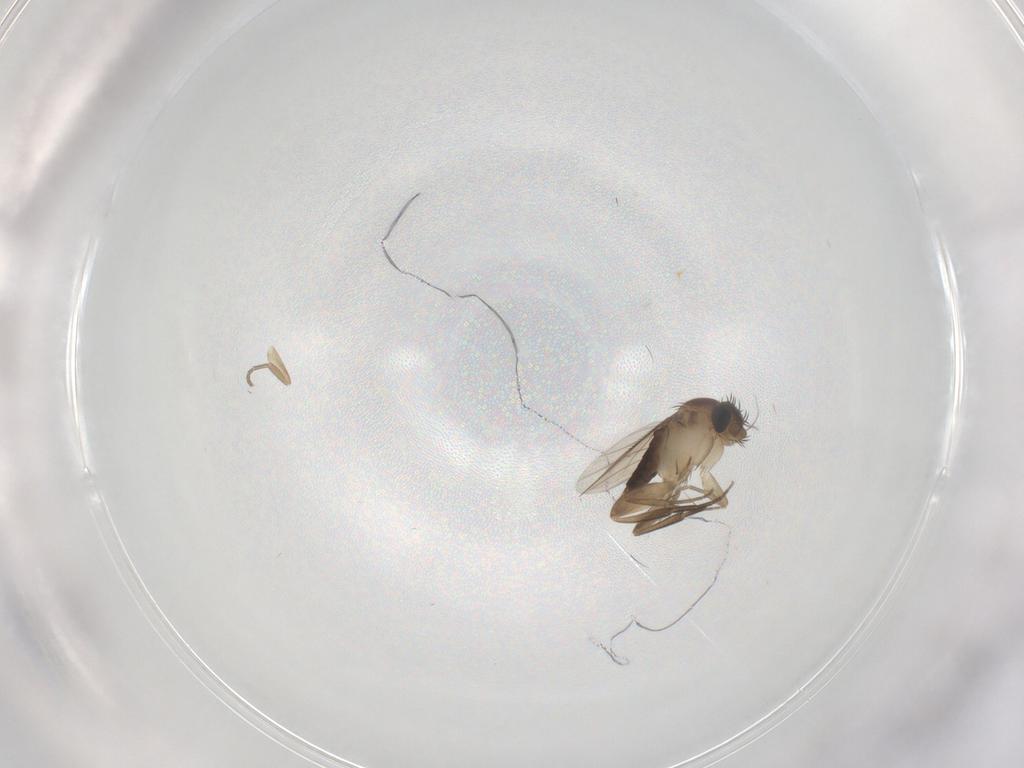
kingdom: Animalia
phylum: Arthropoda
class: Insecta
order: Diptera
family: Phoridae
